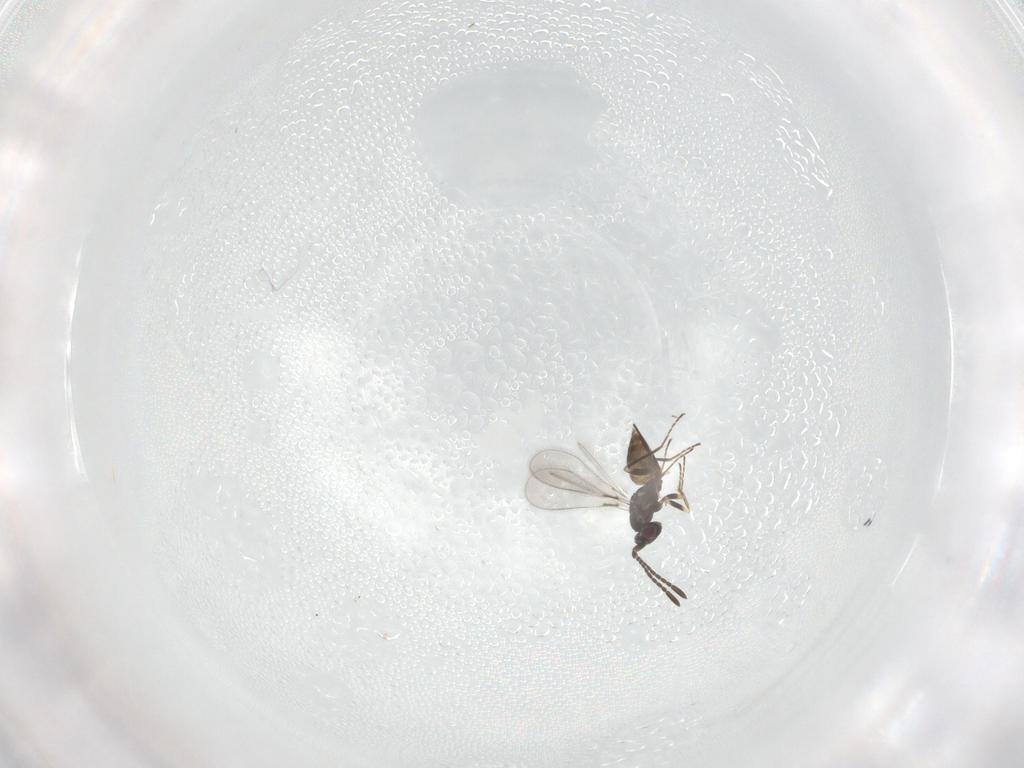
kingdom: Animalia
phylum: Arthropoda
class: Insecta
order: Hymenoptera
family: Mymaridae
